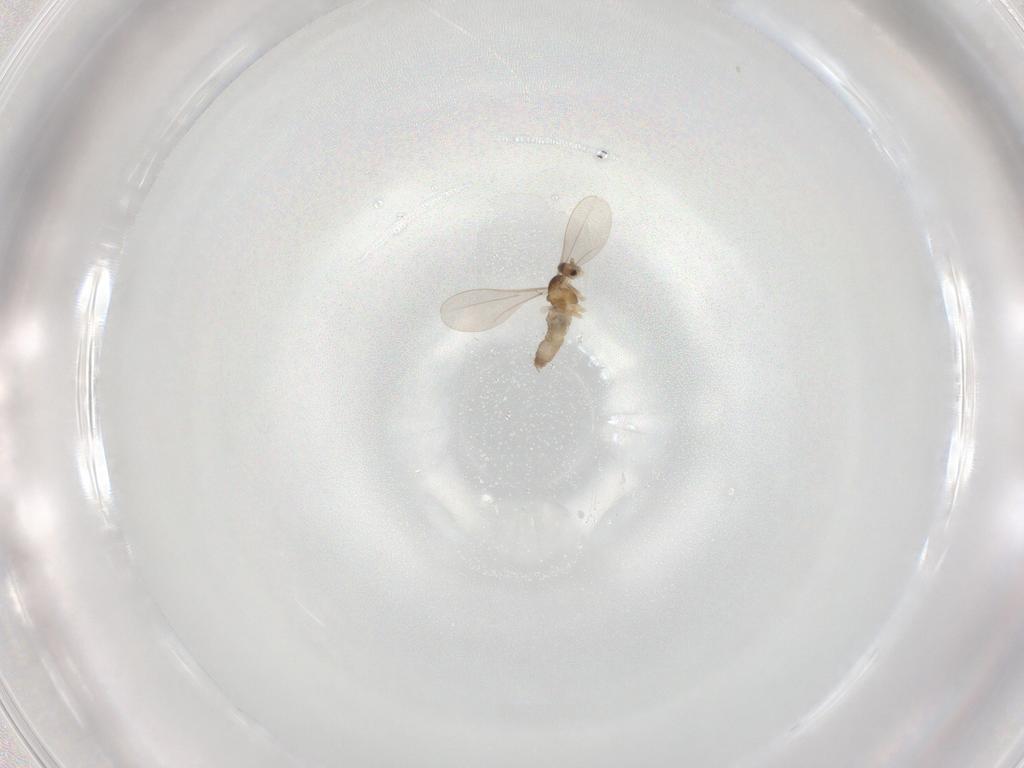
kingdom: Animalia
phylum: Arthropoda
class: Insecta
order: Diptera
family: Cecidomyiidae
